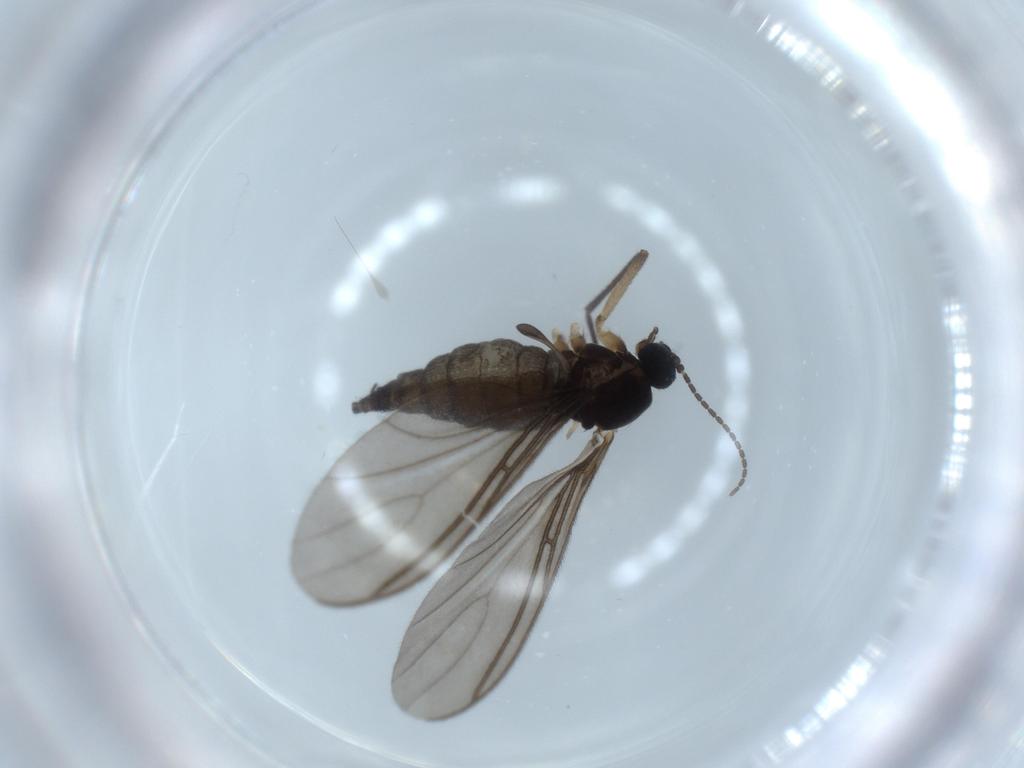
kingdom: Animalia
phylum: Arthropoda
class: Insecta
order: Diptera
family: Sciaridae
